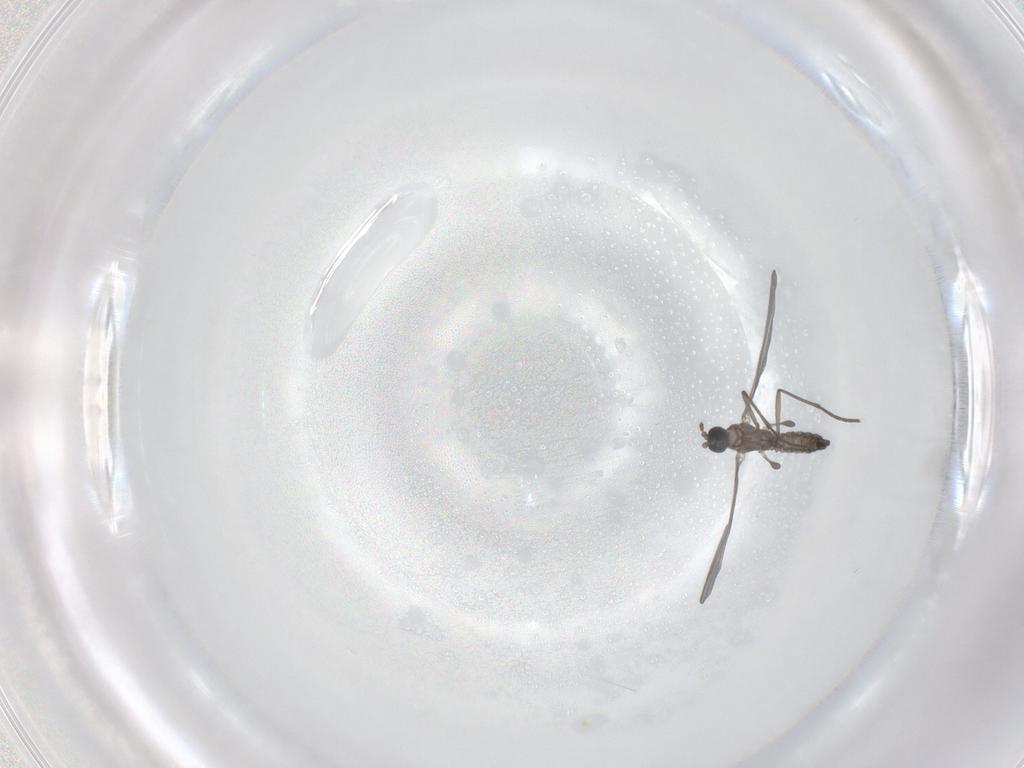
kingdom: Animalia
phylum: Arthropoda
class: Insecta
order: Diptera
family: Sciaridae
